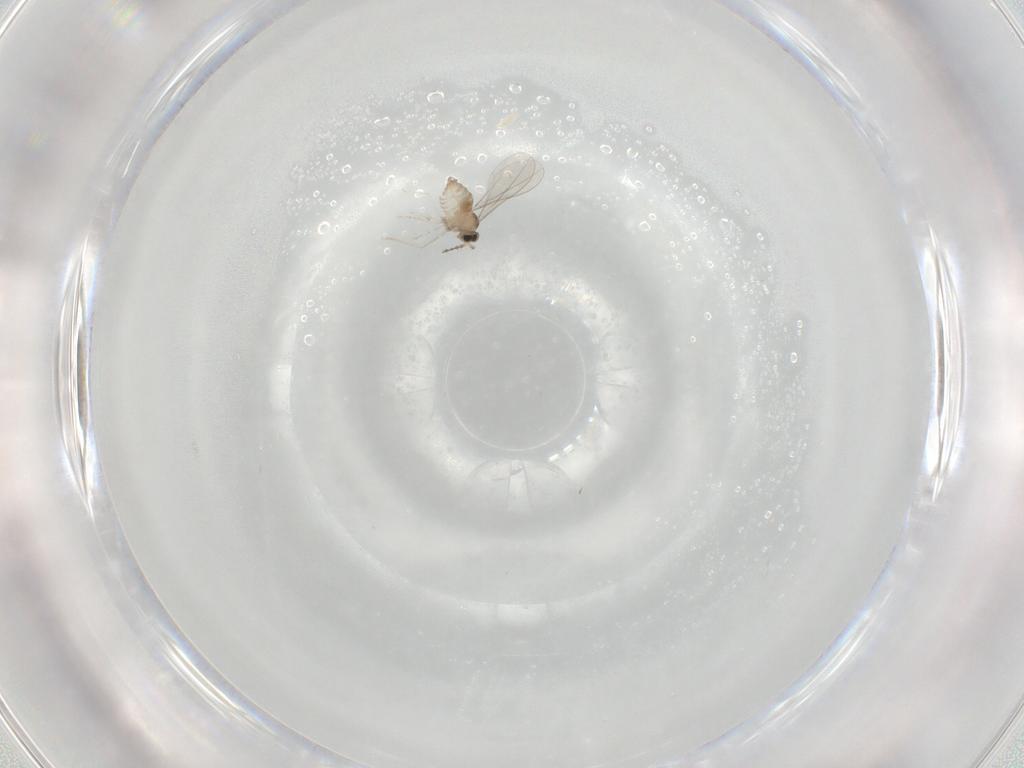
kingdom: Animalia
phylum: Arthropoda
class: Insecta
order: Diptera
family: Cecidomyiidae
